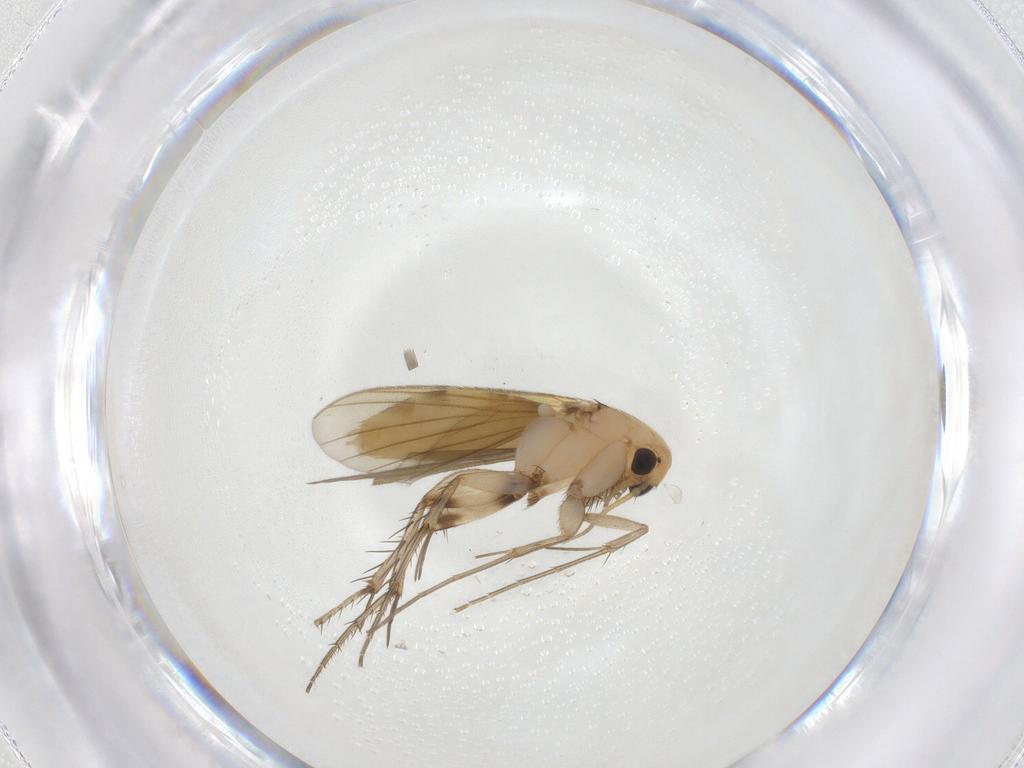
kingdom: Animalia
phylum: Arthropoda
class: Insecta
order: Diptera
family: Mycetophilidae
